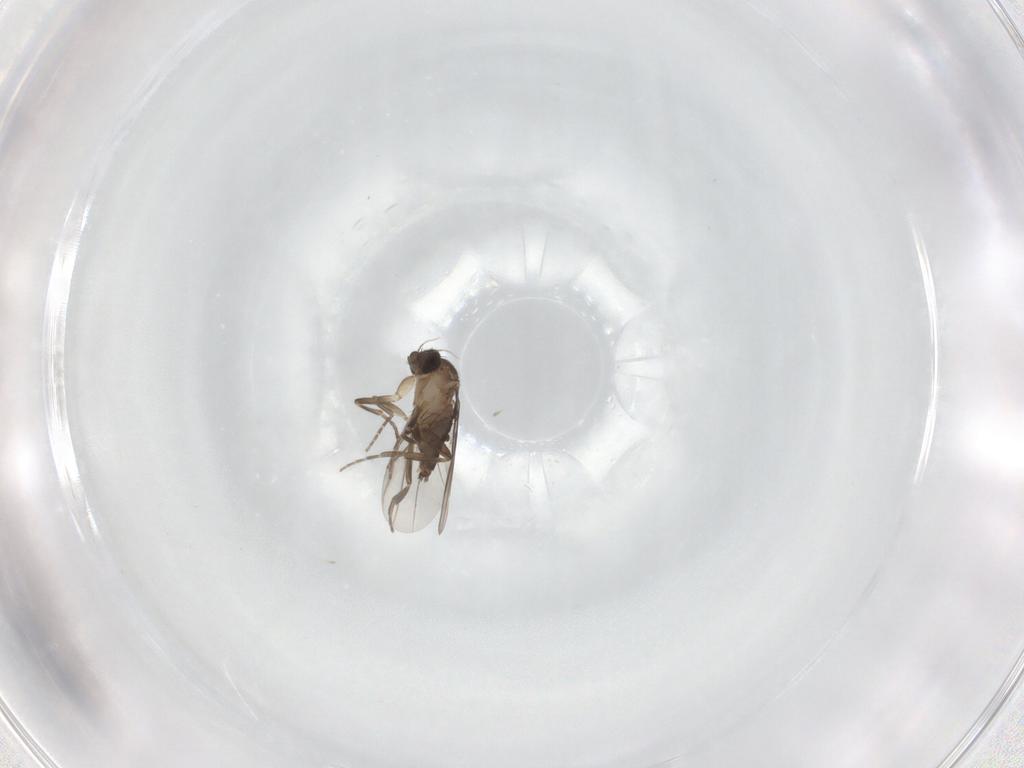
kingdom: Animalia
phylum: Arthropoda
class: Insecta
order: Diptera
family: Phoridae
